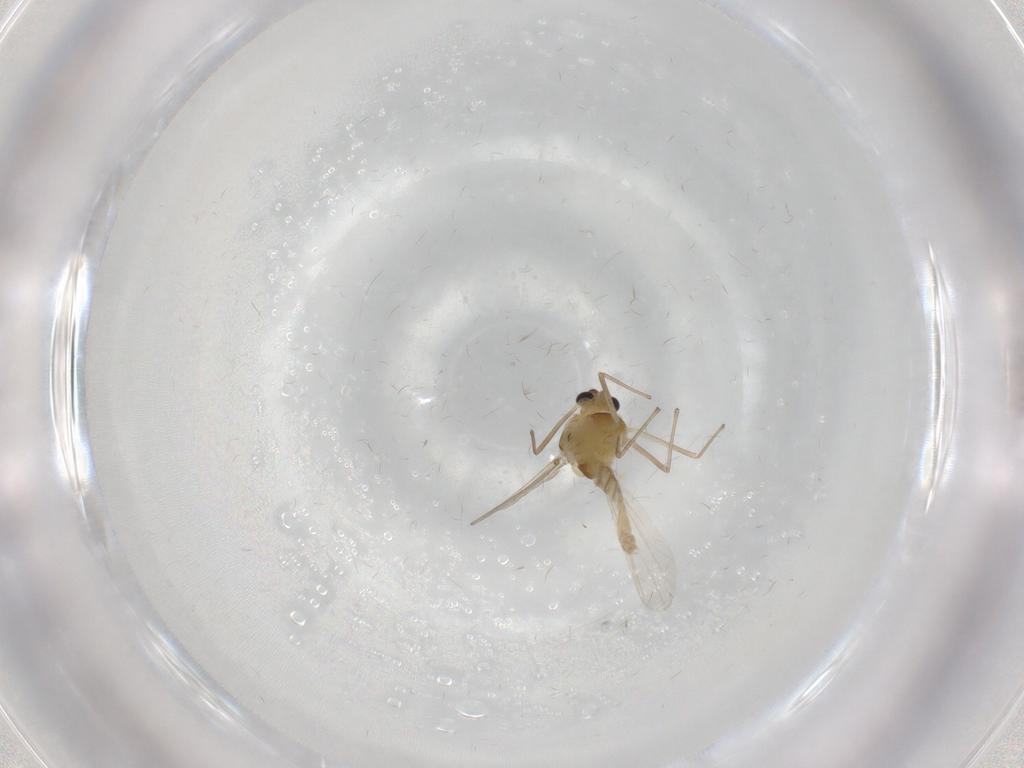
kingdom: Animalia
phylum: Arthropoda
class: Insecta
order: Diptera
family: Chironomidae
